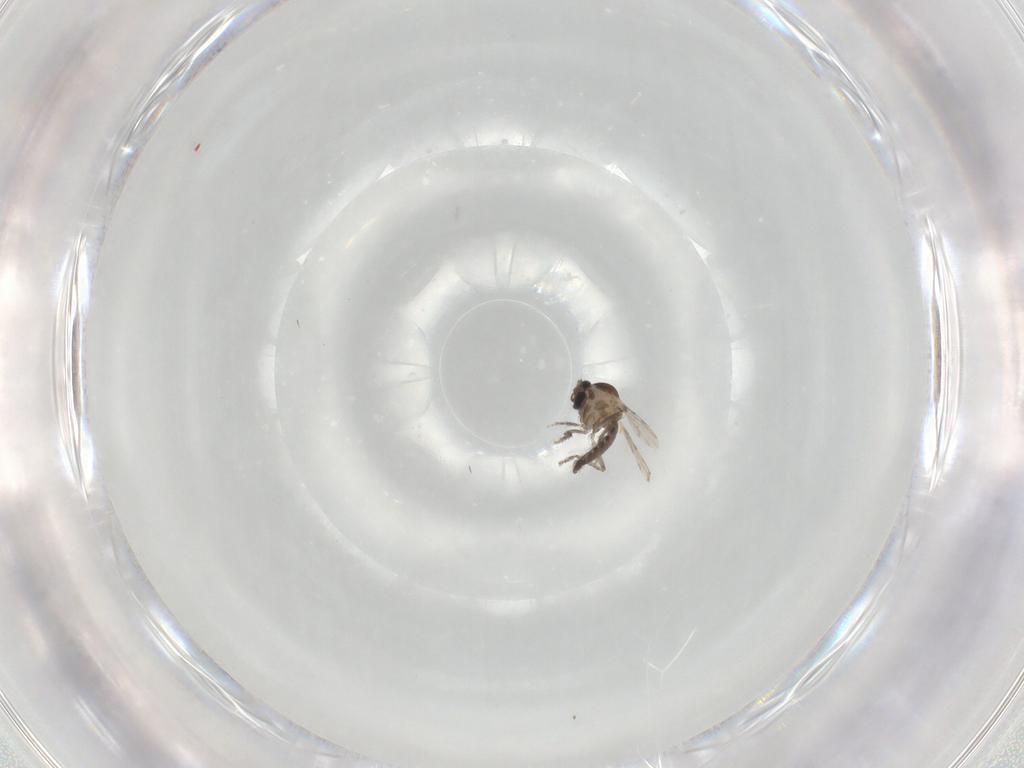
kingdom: Animalia
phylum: Arthropoda
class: Insecta
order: Diptera
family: Ceratopogonidae
